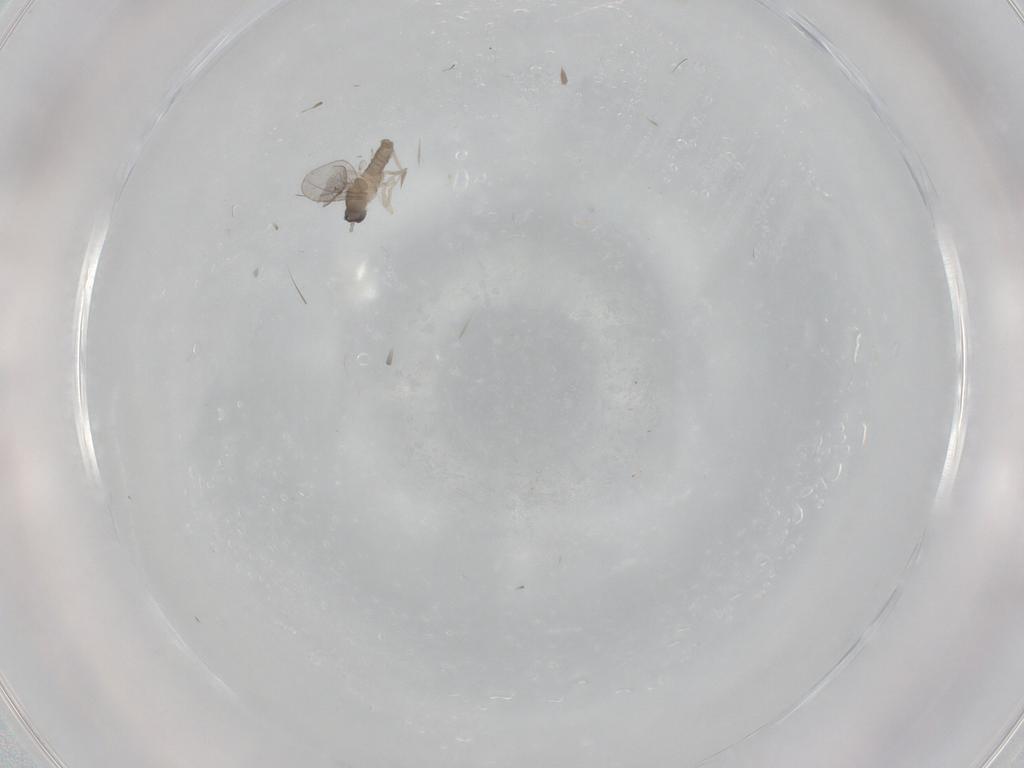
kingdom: Animalia
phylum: Arthropoda
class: Insecta
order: Diptera
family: Cecidomyiidae
